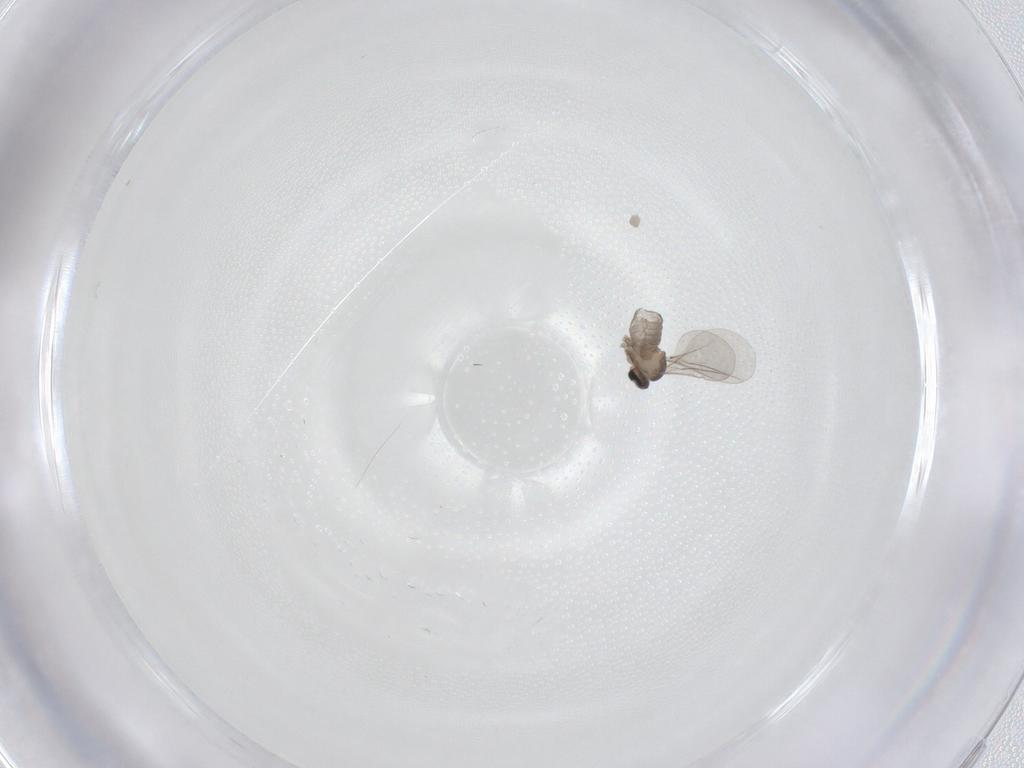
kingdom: Animalia
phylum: Arthropoda
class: Insecta
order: Diptera
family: Cecidomyiidae
